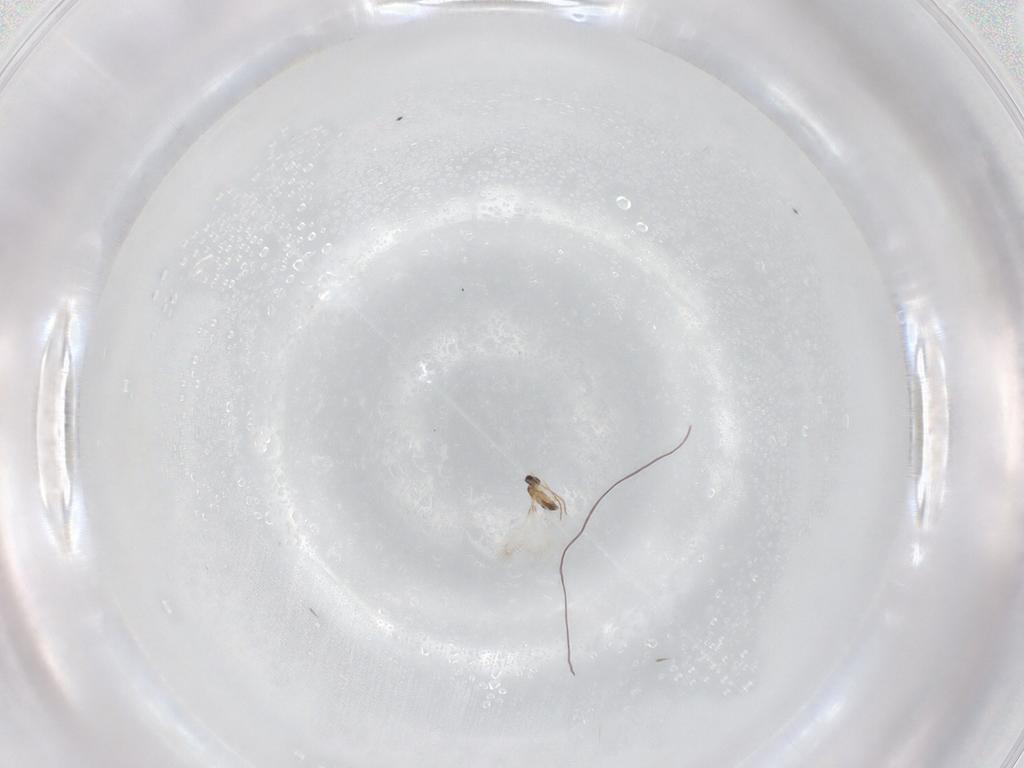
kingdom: Animalia
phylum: Arthropoda
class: Insecta
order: Hymenoptera
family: Mymaridae
